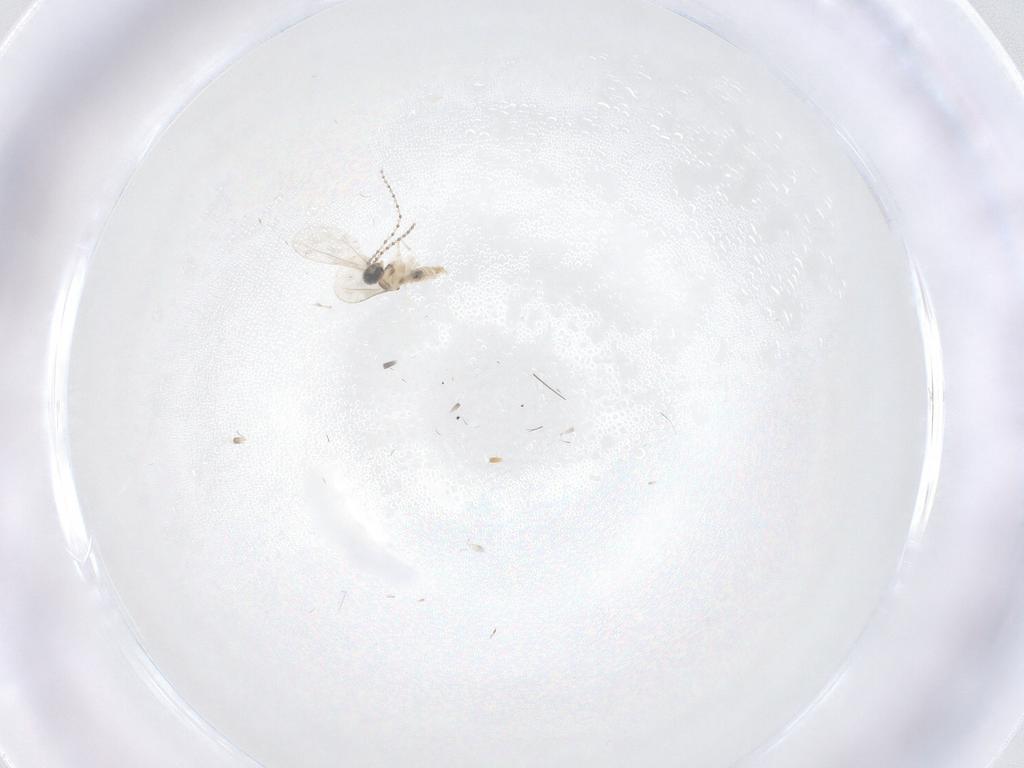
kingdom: Animalia
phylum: Arthropoda
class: Insecta
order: Diptera
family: Cecidomyiidae
